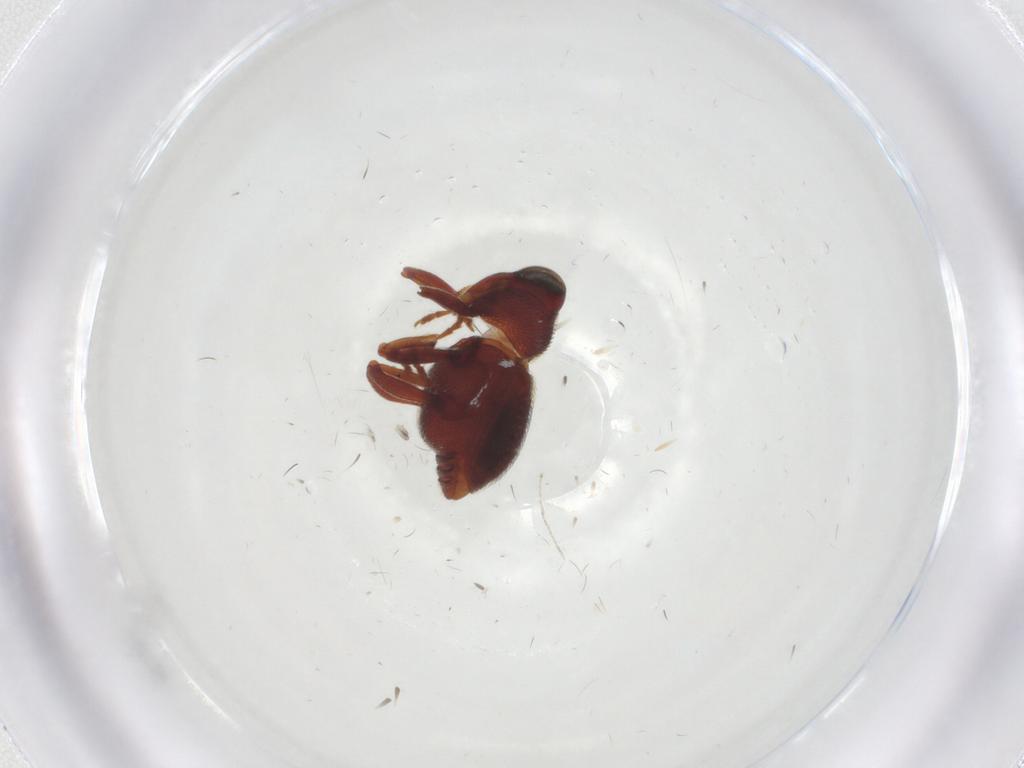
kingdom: Animalia
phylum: Arthropoda
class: Insecta
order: Coleoptera
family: Curculionidae
